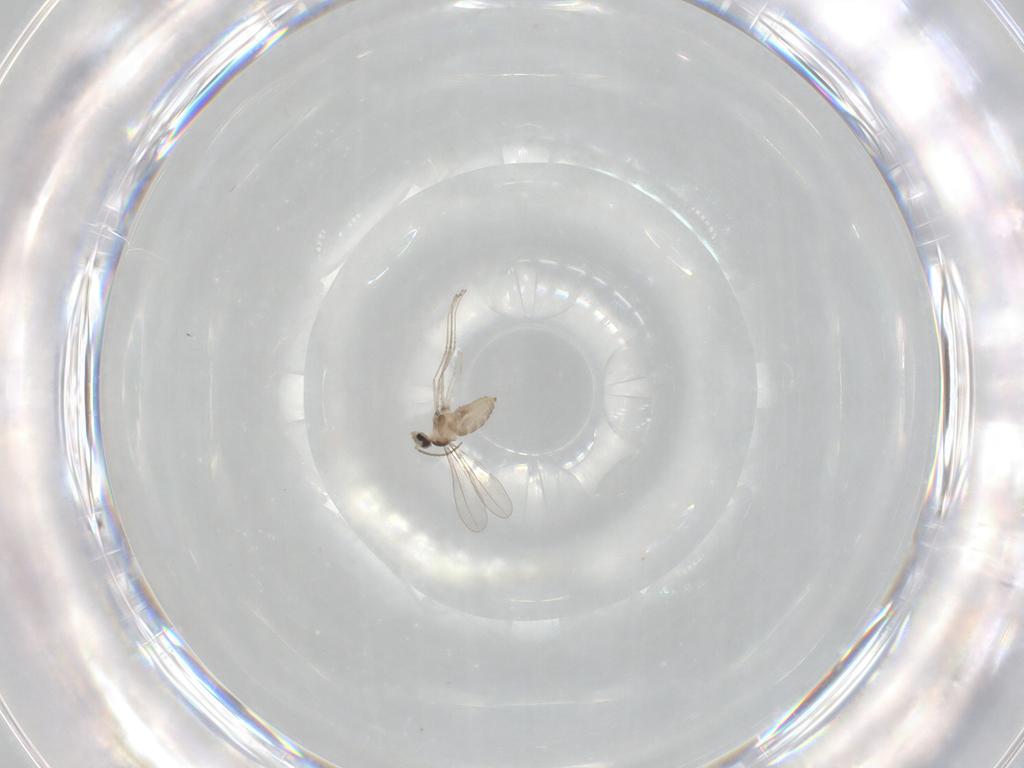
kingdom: Animalia
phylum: Arthropoda
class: Insecta
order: Diptera
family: Cecidomyiidae
